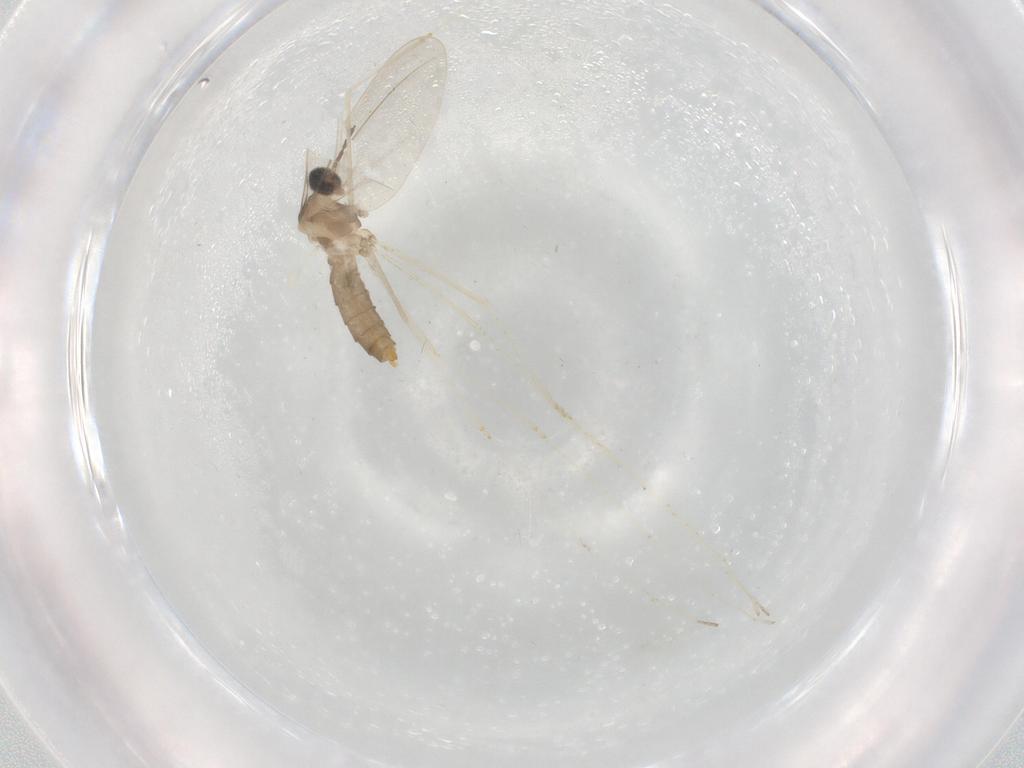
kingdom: Animalia
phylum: Arthropoda
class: Insecta
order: Diptera
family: Cecidomyiidae
